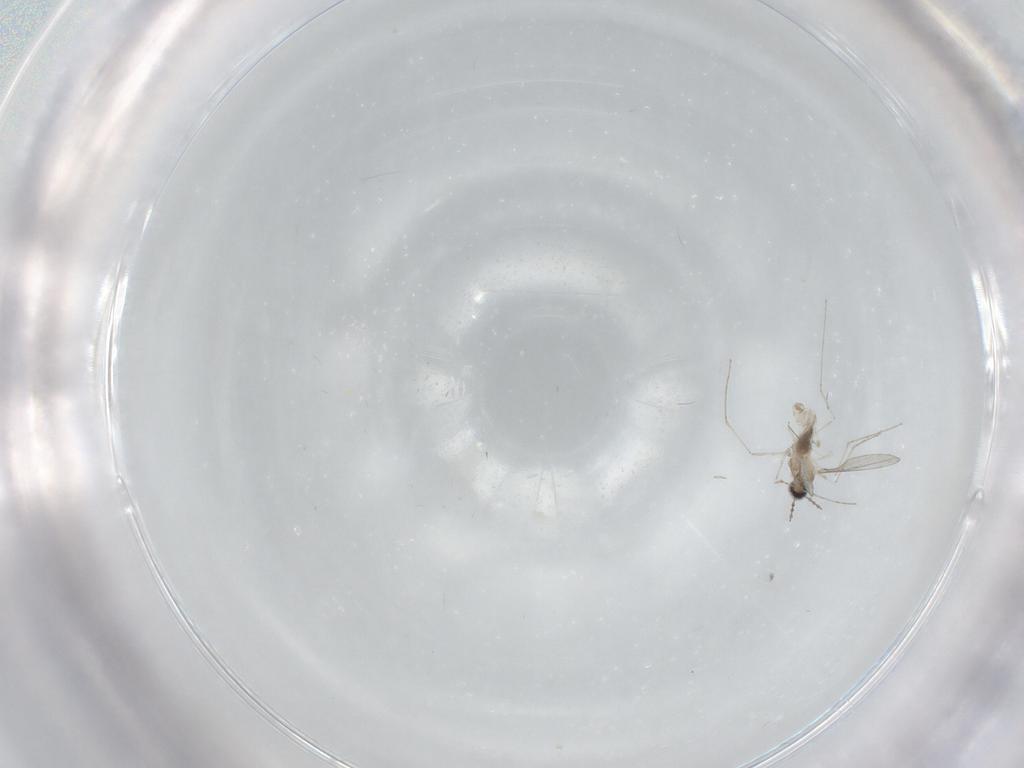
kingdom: Animalia
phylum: Arthropoda
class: Insecta
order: Diptera
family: Chironomidae
